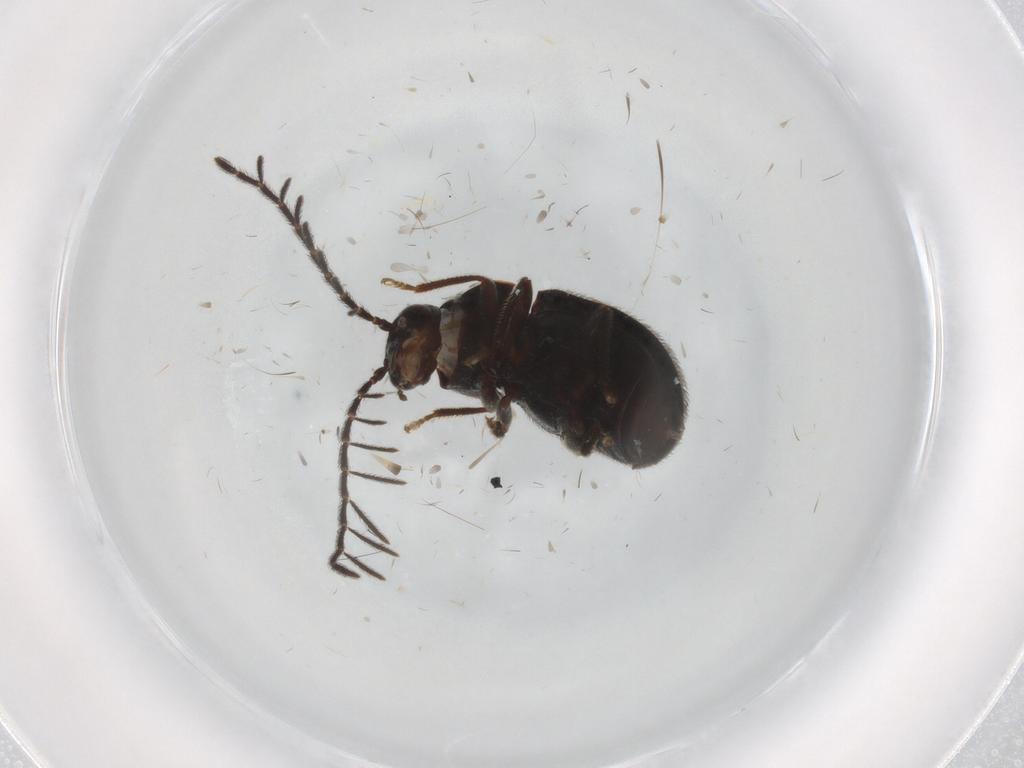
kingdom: Animalia
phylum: Arthropoda
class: Insecta
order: Coleoptera
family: Ptilodactylidae
